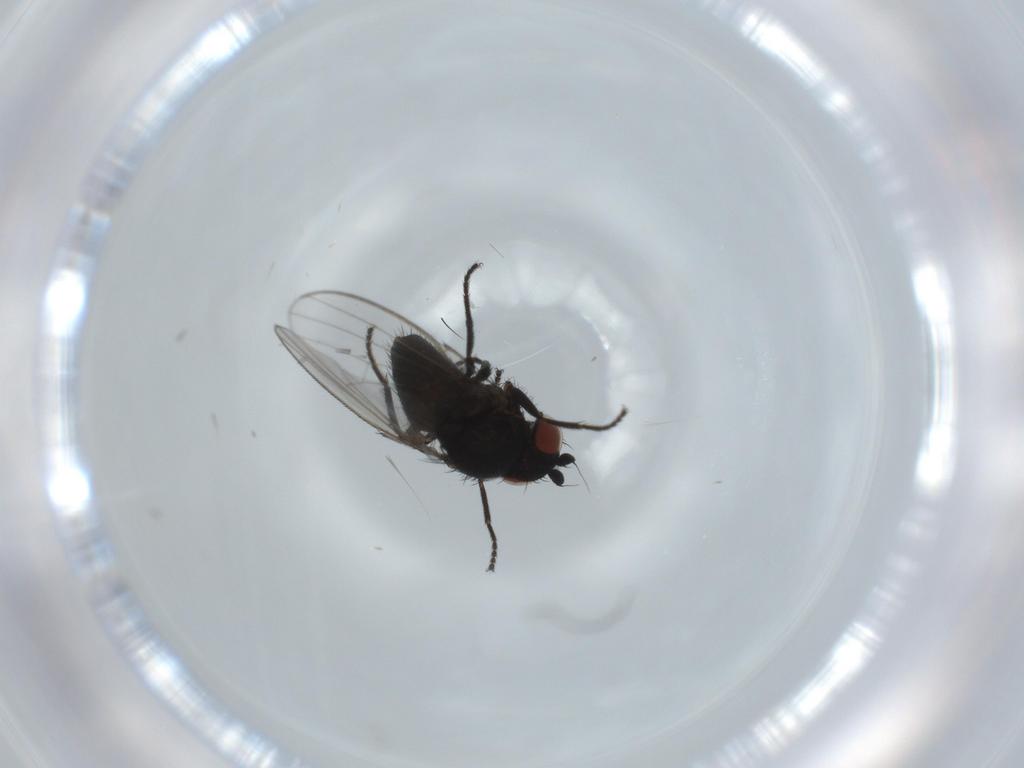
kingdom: Animalia
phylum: Arthropoda
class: Insecta
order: Diptera
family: Milichiidae
